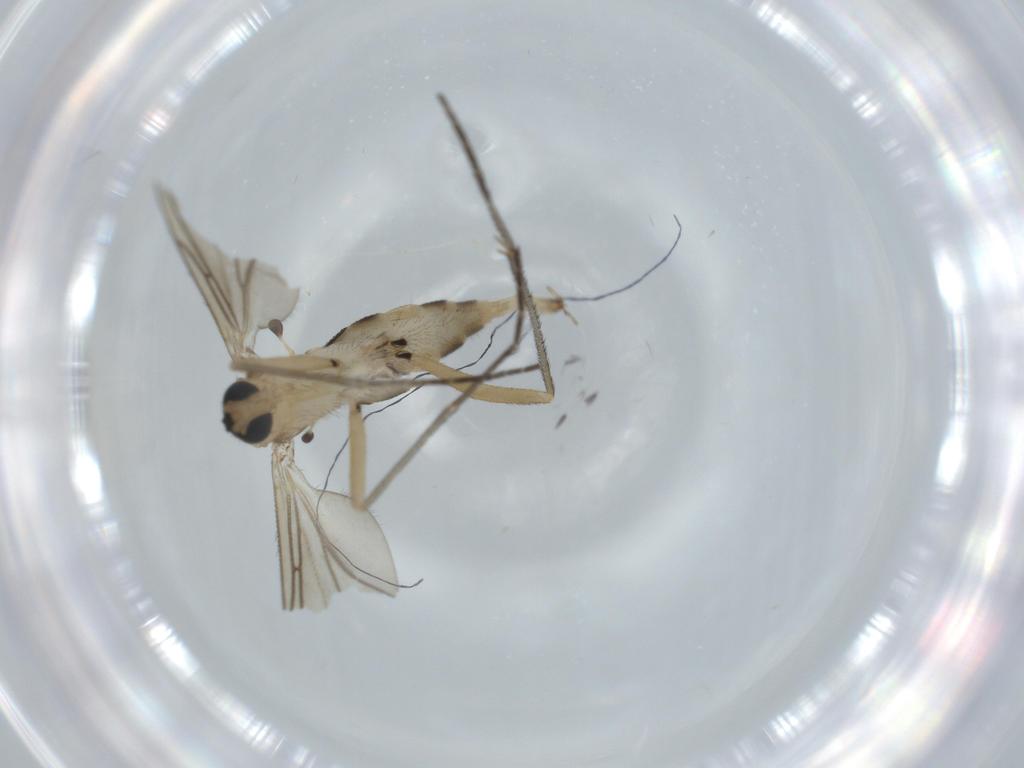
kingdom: Animalia
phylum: Arthropoda
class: Insecta
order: Diptera
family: Sciaridae
